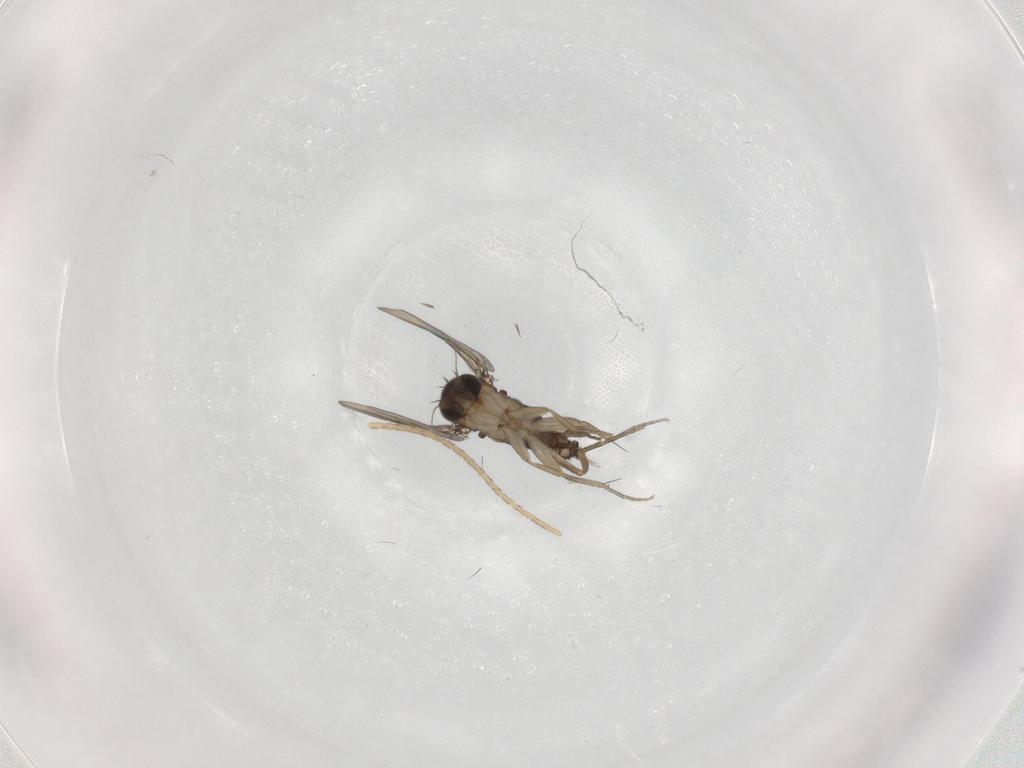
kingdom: Animalia
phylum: Arthropoda
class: Insecta
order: Diptera
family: Phoridae
